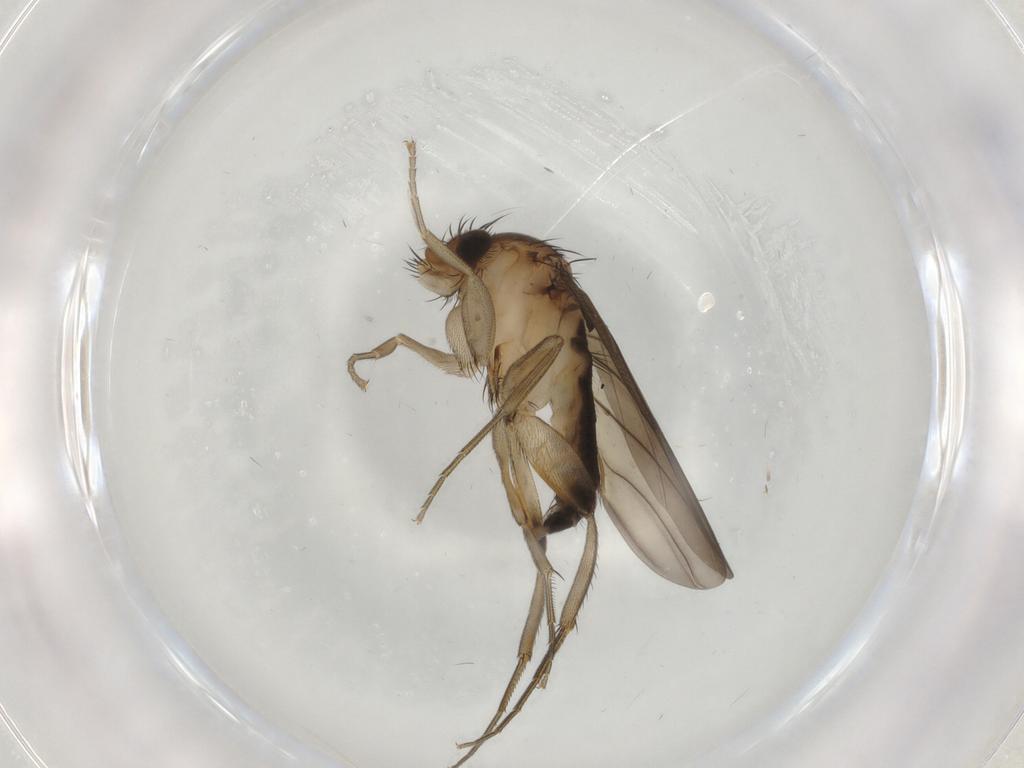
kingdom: Animalia
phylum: Arthropoda
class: Insecta
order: Diptera
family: Phoridae
